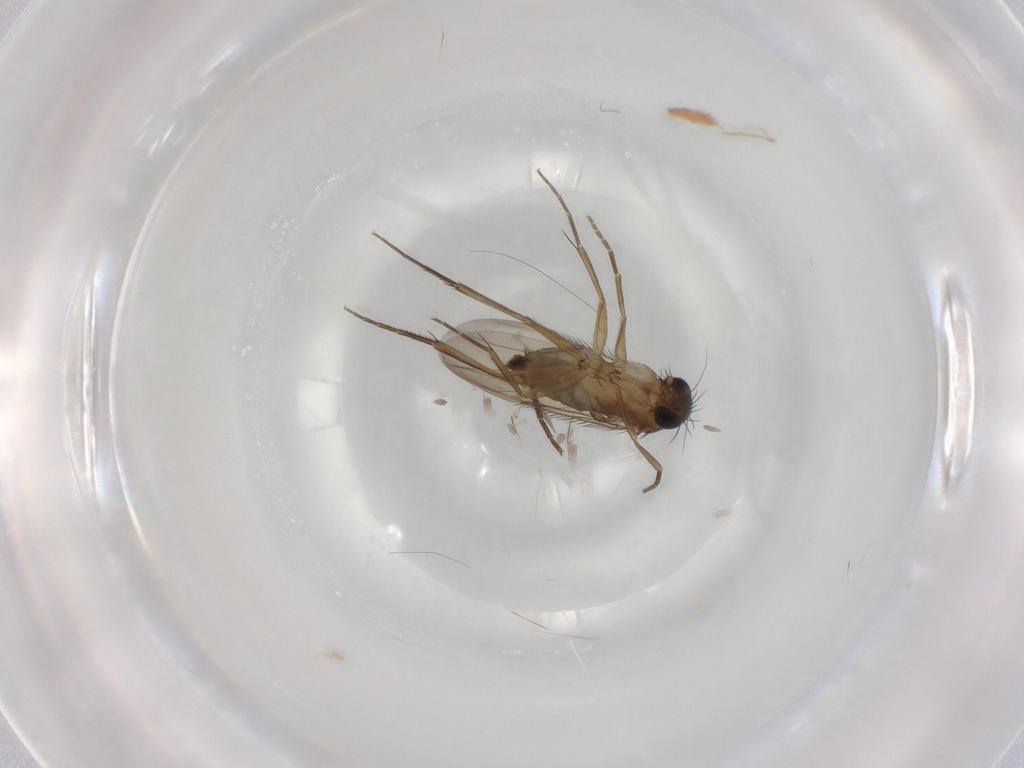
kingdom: Animalia
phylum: Arthropoda
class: Insecta
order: Diptera
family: Phoridae
